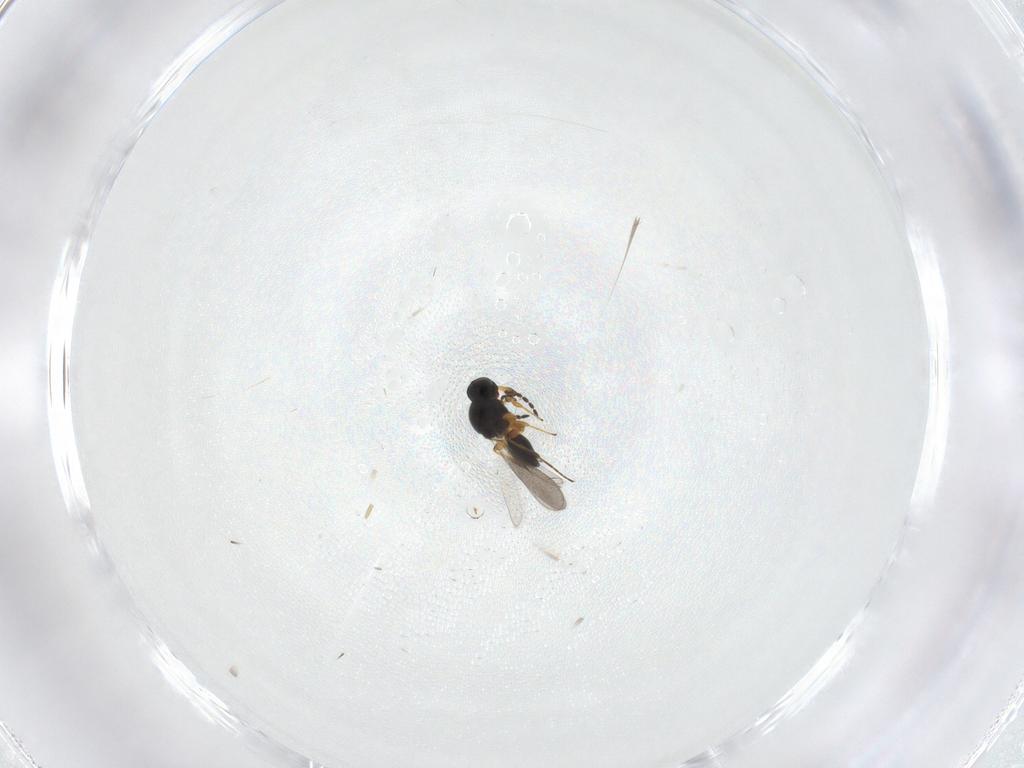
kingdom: Animalia
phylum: Arthropoda
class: Insecta
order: Hymenoptera
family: Platygastridae
